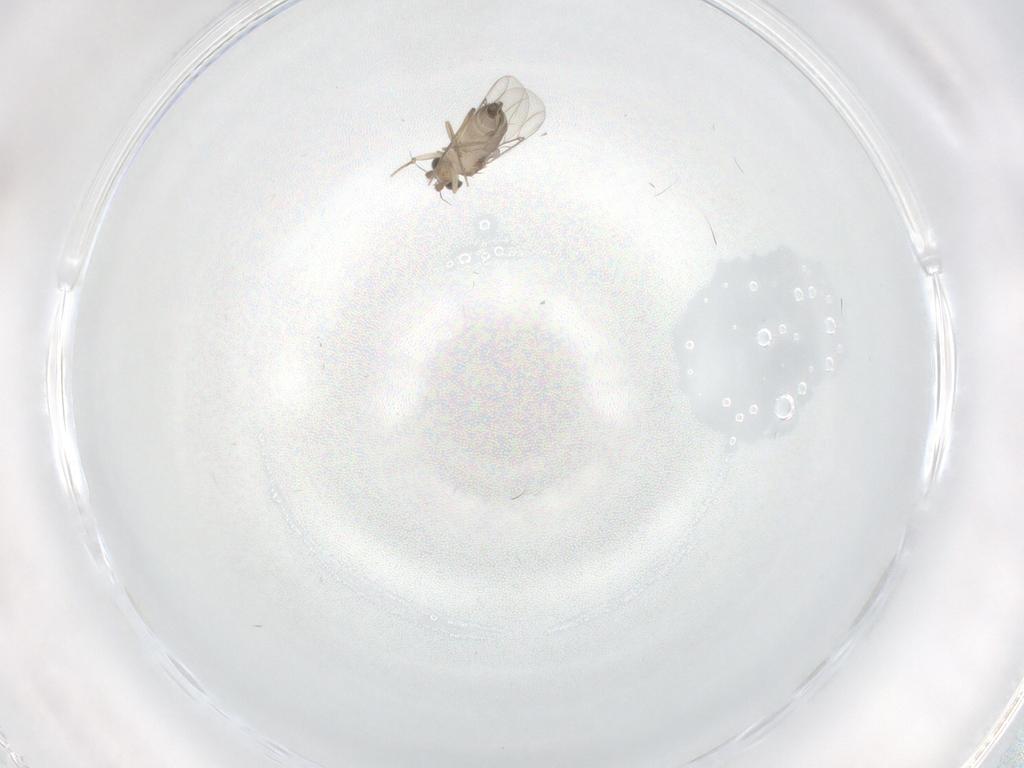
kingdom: Animalia
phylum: Arthropoda
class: Insecta
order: Diptera
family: Phoridae
